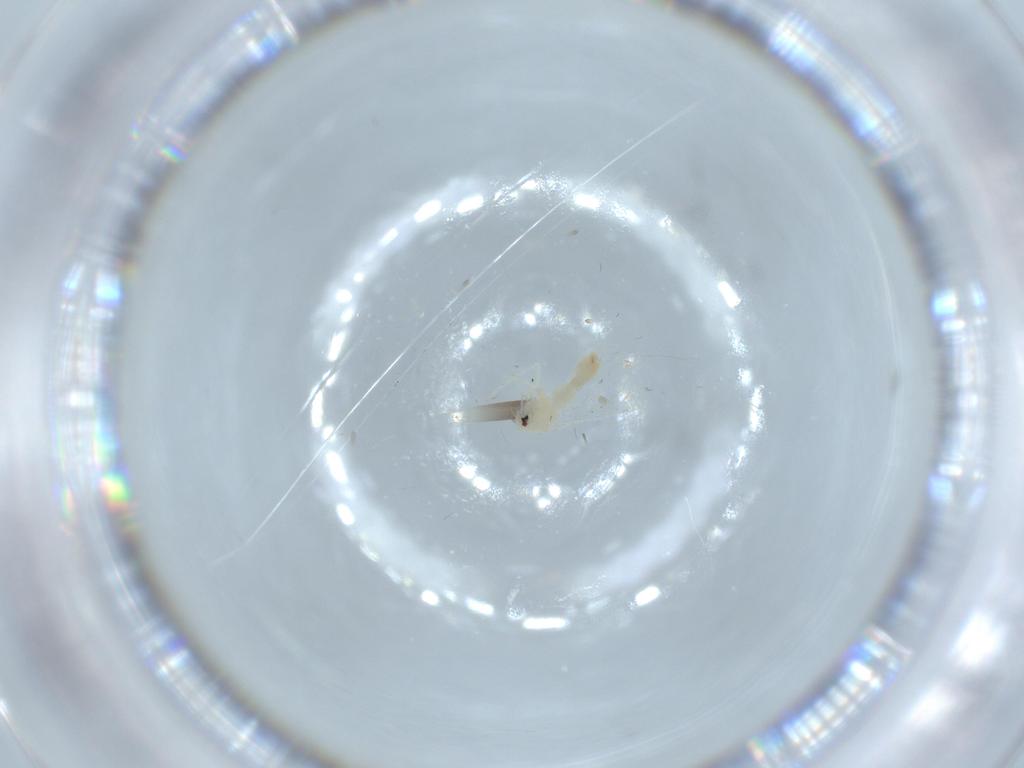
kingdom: Animalia
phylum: Arthropoda
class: Insecta
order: Hemiptera
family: Aleyrodidae
